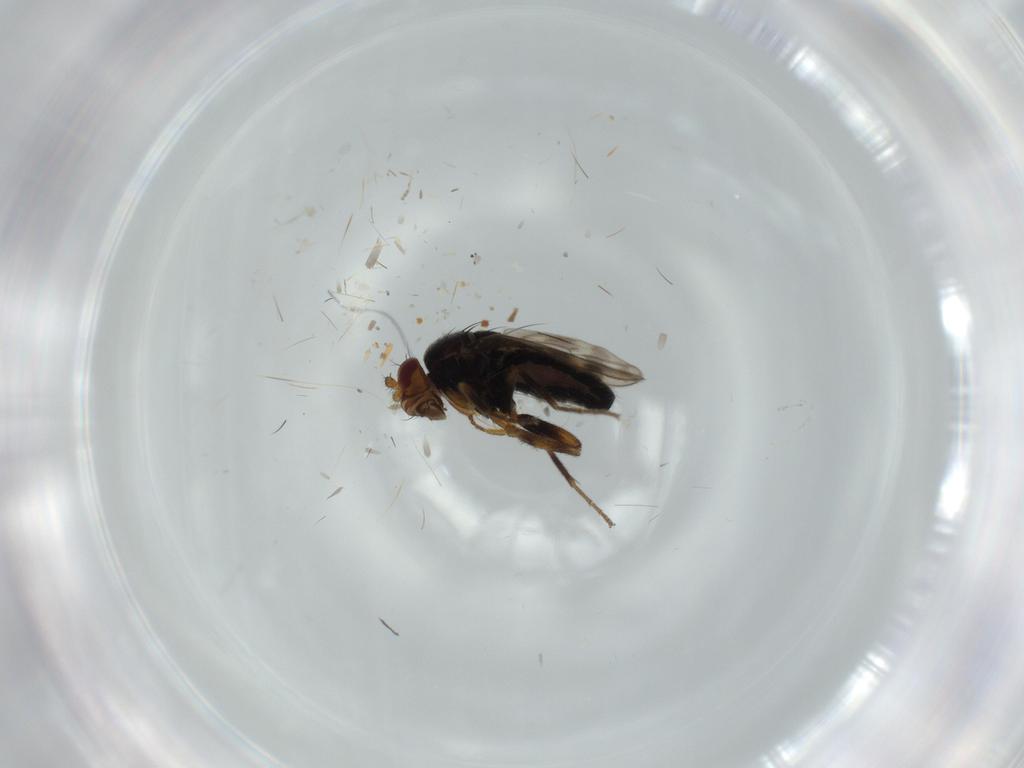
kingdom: Animalia
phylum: Arthropoda
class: Insecta
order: Diptera
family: Sphaeroceridae
